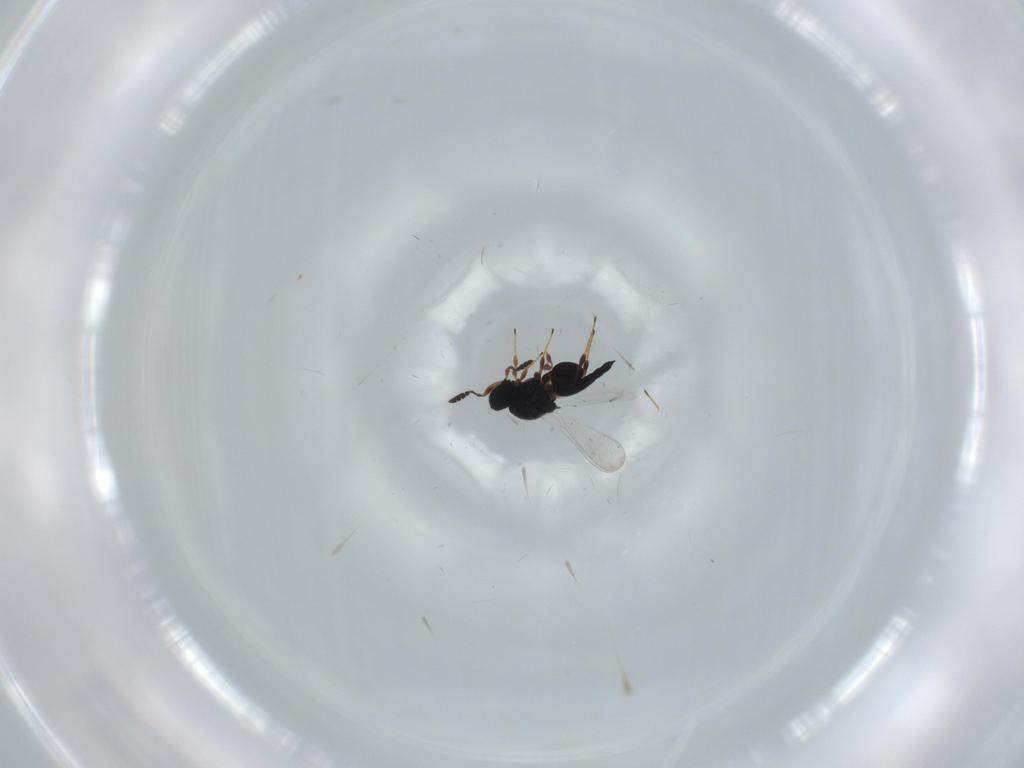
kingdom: Animalia
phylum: Arthropoda
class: Insecta
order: Hymenoptera
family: Platygastridae
